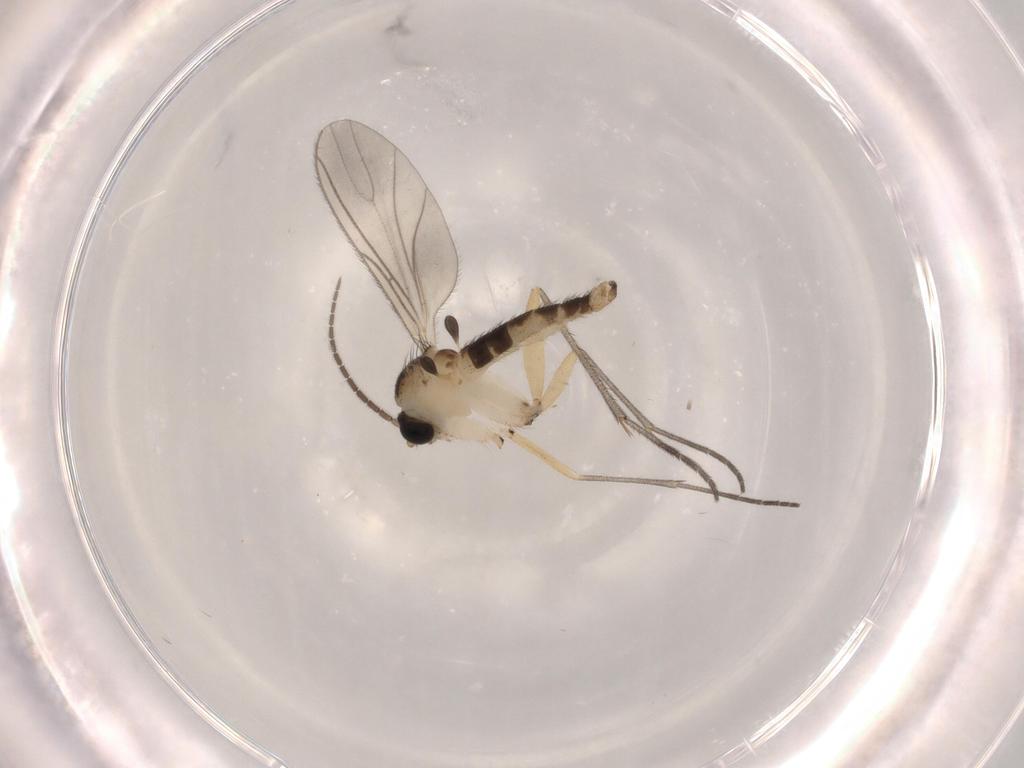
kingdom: Animalia
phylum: Arthropoda
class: Insecta
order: Diptera
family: Sciaridae
